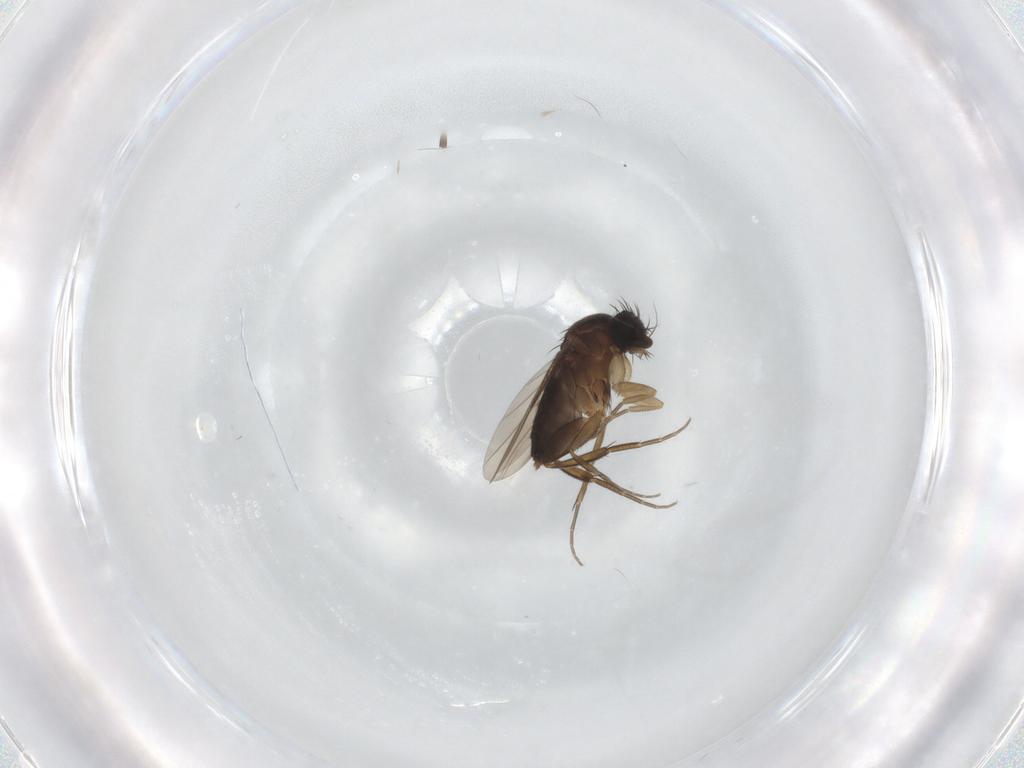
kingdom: Animalia
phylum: Arthropoda
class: Insecta
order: Diptera
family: Phoridae
